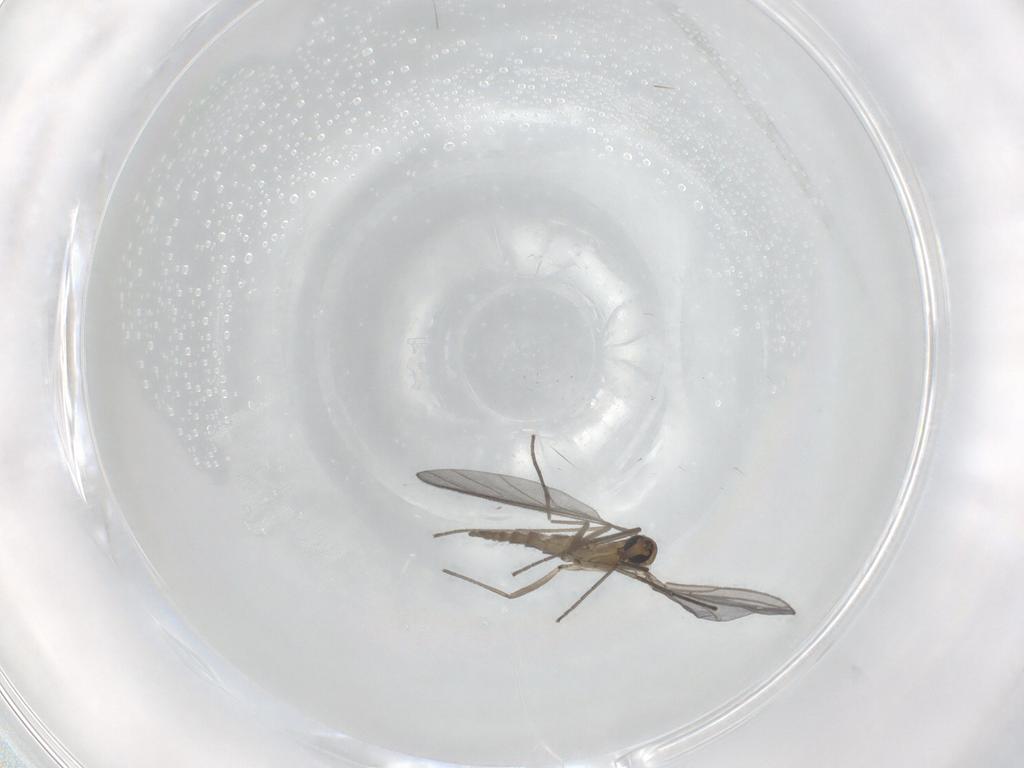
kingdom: Animalia
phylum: Arthropoda
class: Insecta
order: Diptera
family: Sciaridae
